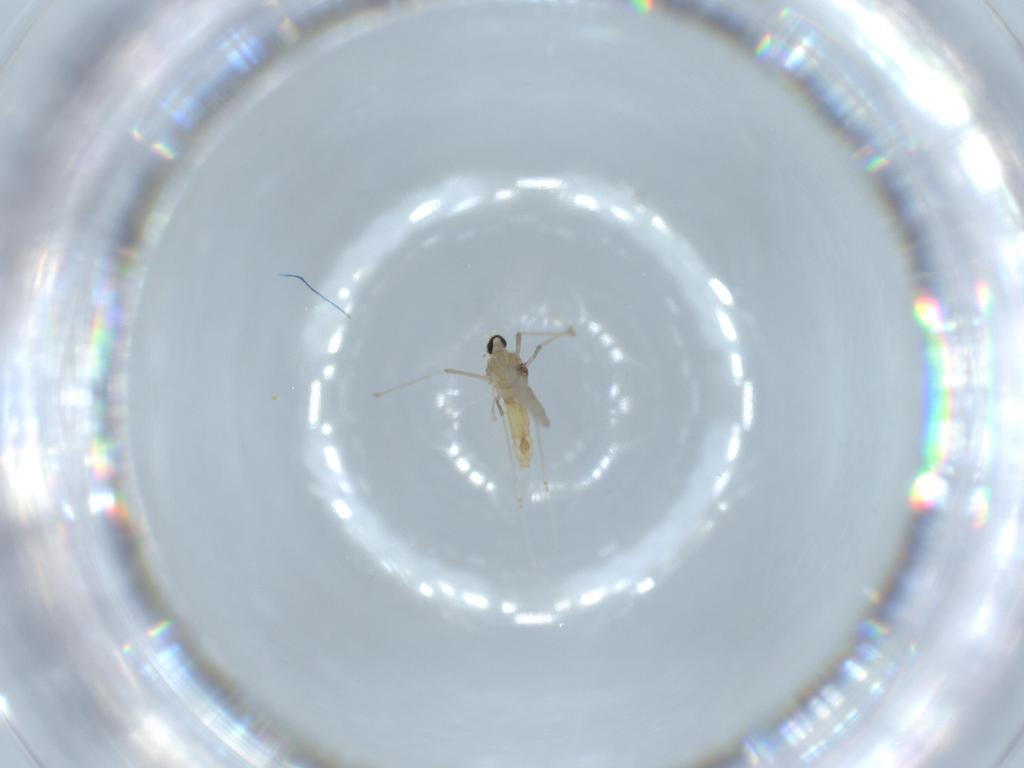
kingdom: Animalia
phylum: Arthropoda
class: Insecta
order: Diptera
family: Cecidomyiidae
